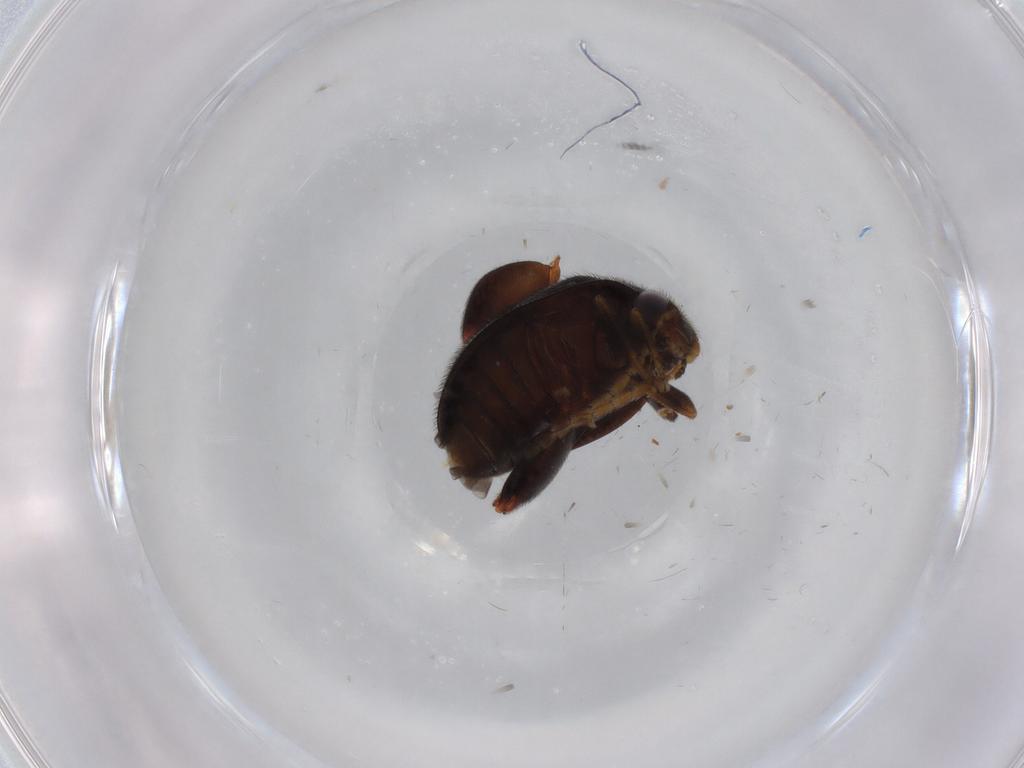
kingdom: Animalia
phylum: Arthropoda
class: Insecta
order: Coleoptera
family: Scirtidae
